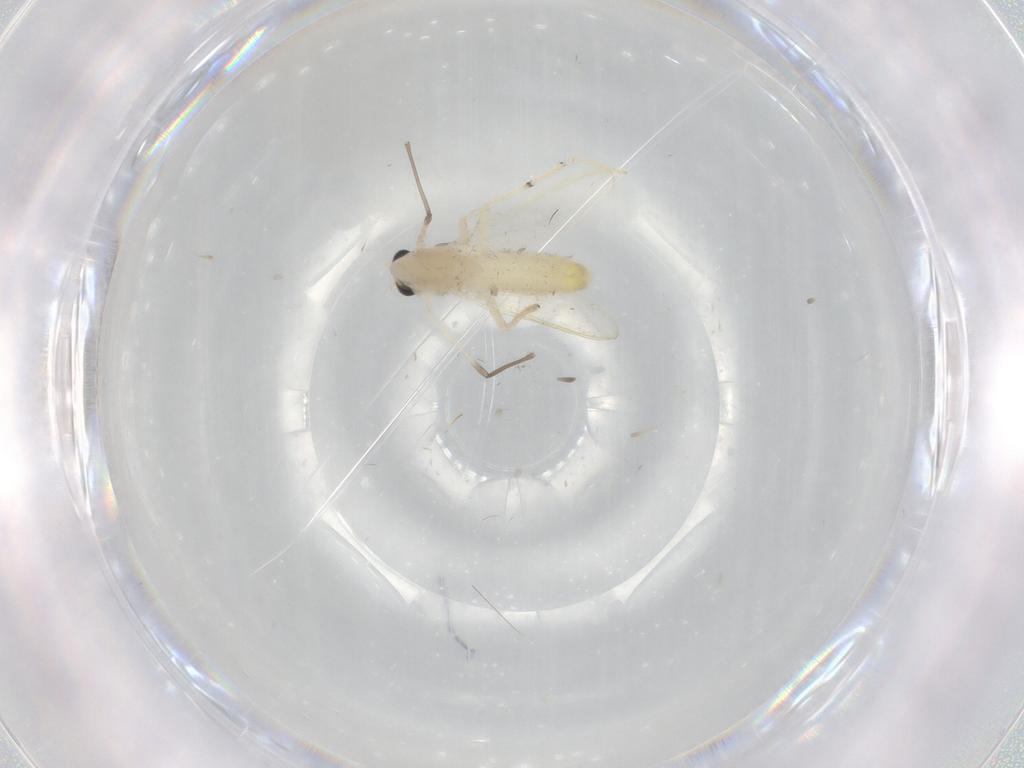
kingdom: Animalia
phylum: Arthropoda
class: Insecta
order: Diptera
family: Chironomidae
